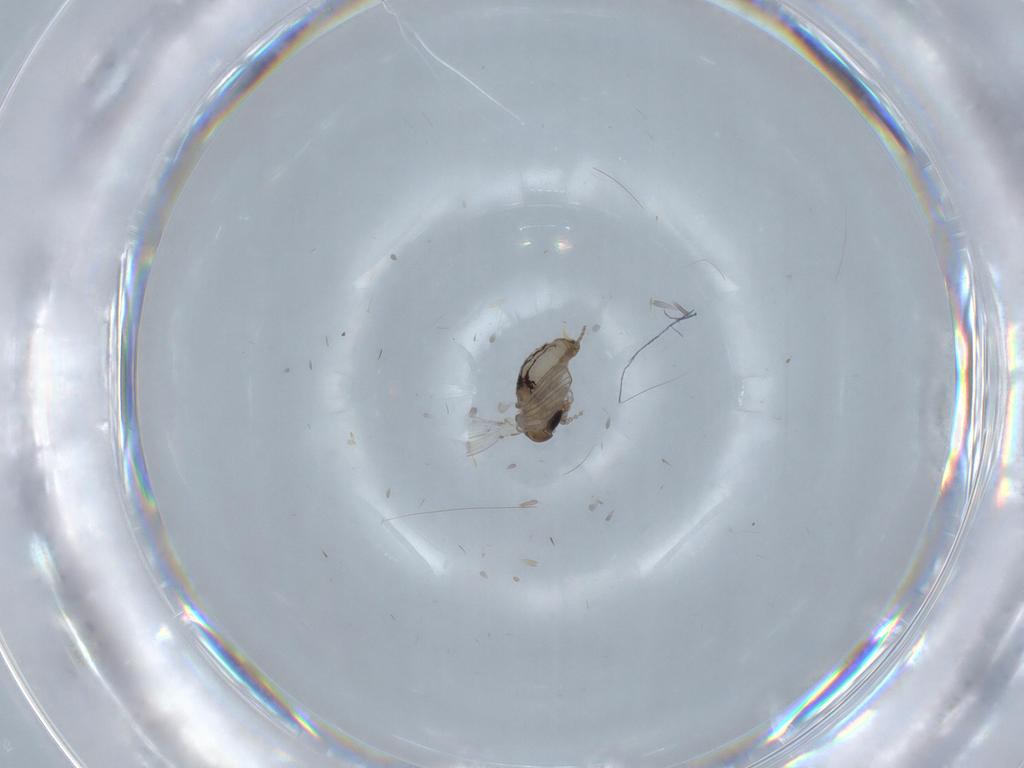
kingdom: Animalia
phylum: Arthropoda
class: Insecta
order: Diptera
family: Psychodidae
